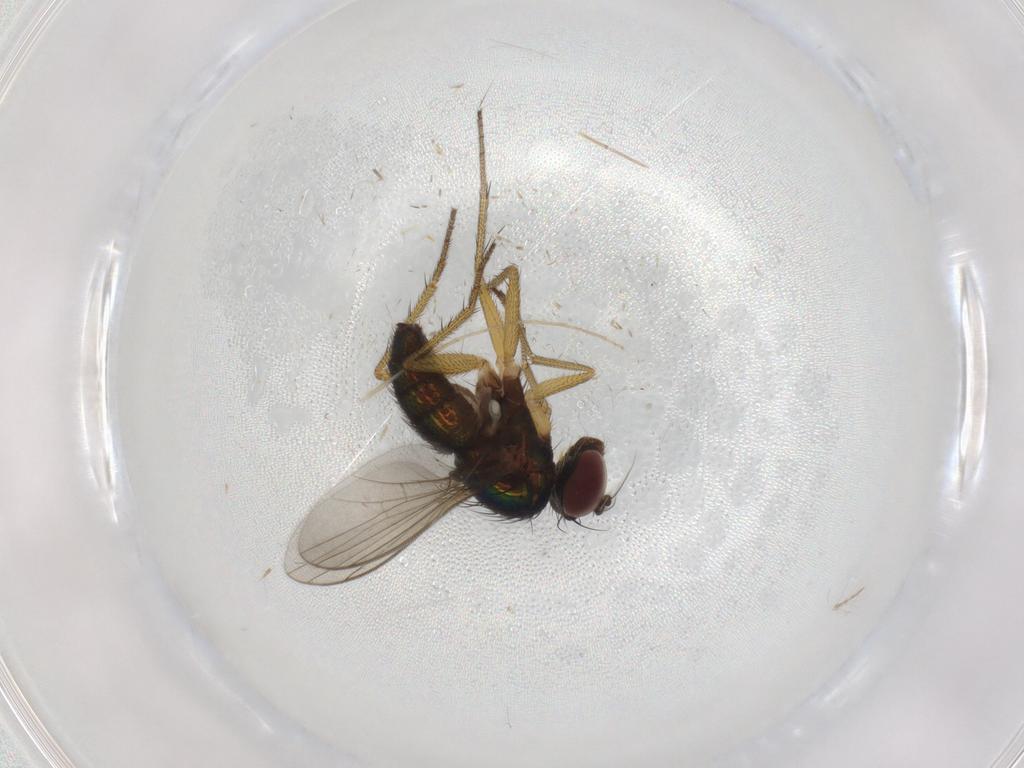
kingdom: Animalia
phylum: Arthropoda
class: Insecta
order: Diptera
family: Dolichopodidae
